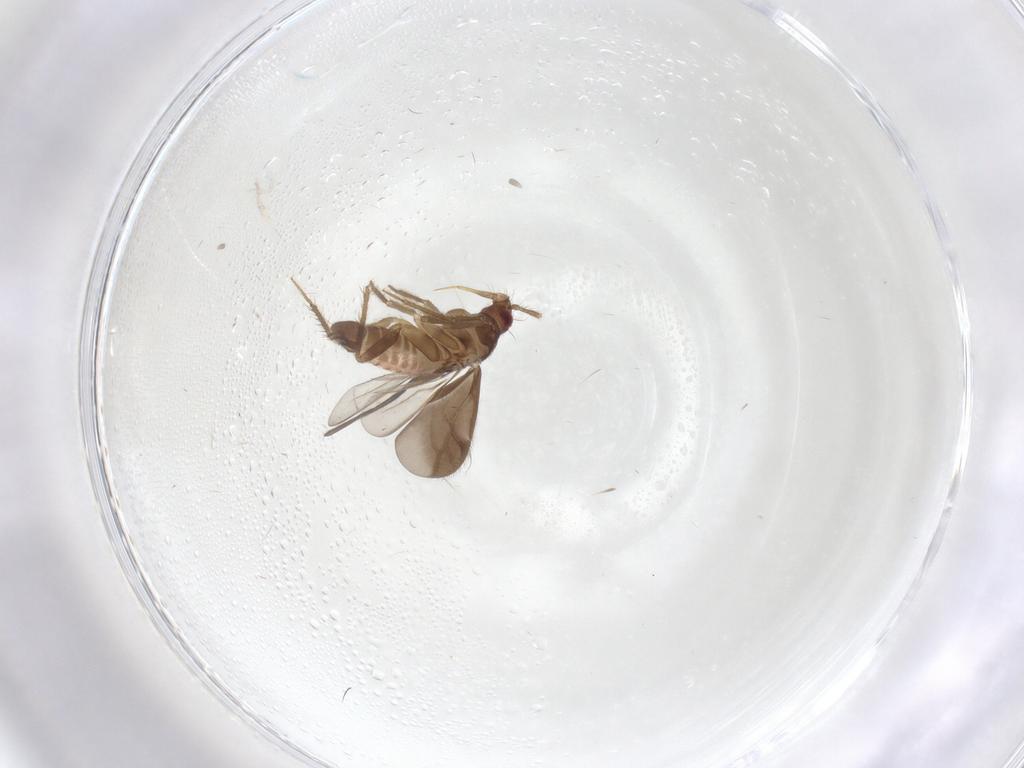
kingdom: Animalia
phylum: Arthropoda
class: Insecta
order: Hemiptera
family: Ceratocombidae
